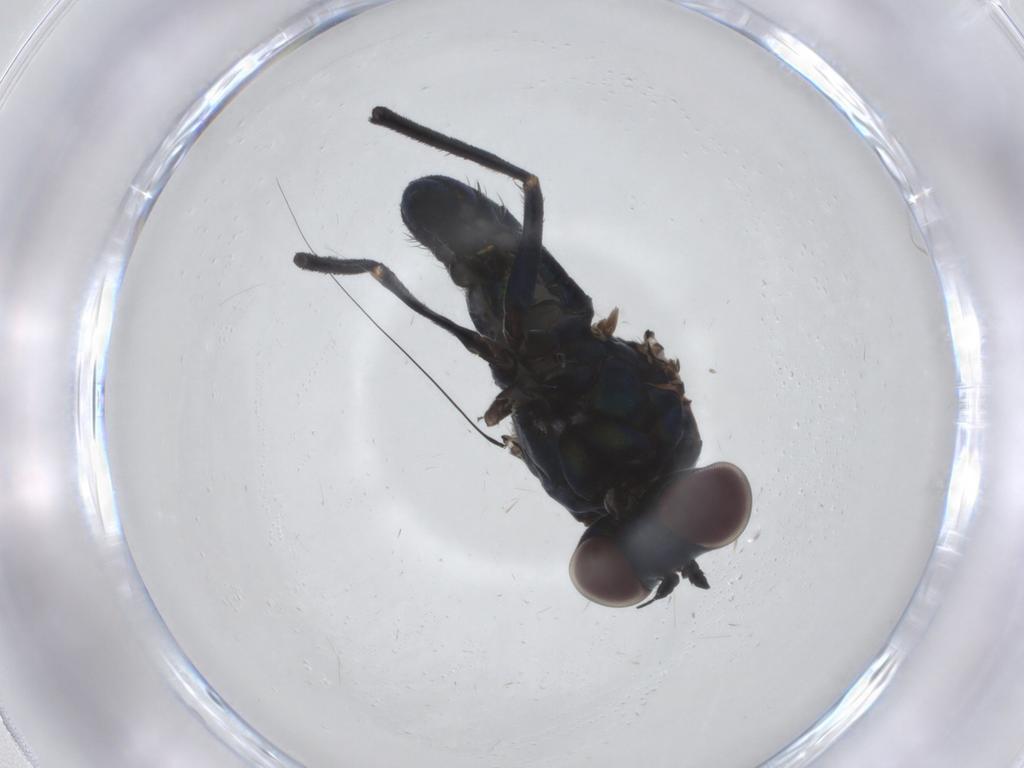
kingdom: Animalia
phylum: Arthropoda
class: Insecta
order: Diptera
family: Dolichopodidae
